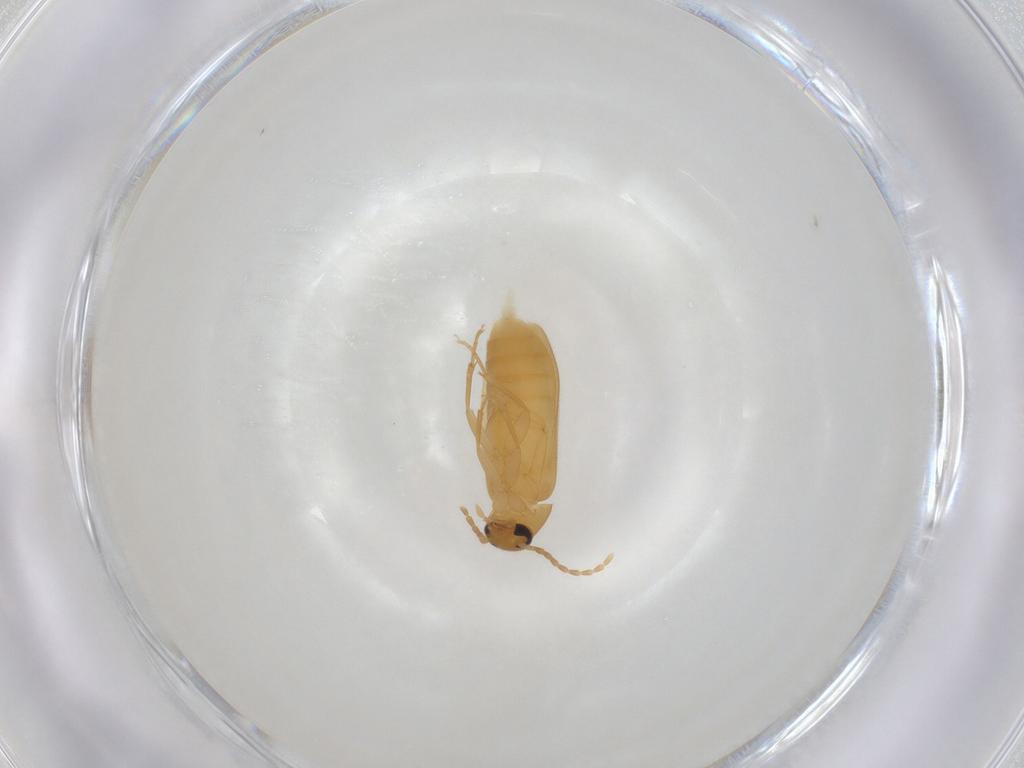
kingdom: Animalia
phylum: Arthropoda
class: Insecta
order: Coleoptera
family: Scraptiidae
